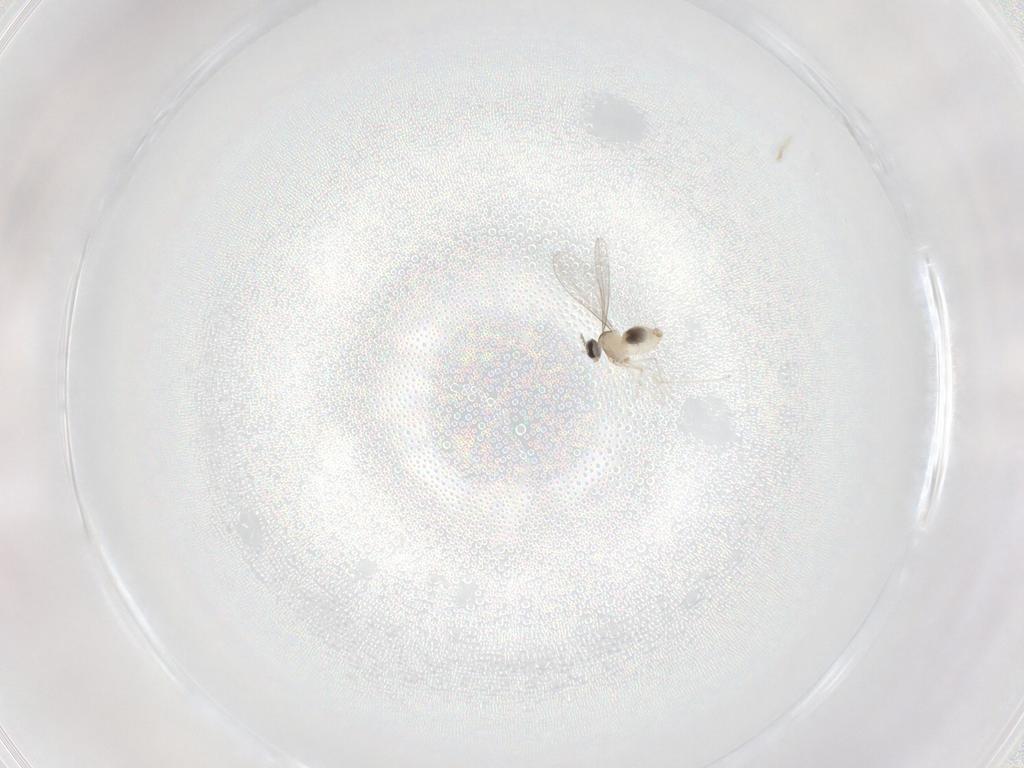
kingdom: Animalia
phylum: Arthropoda
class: Insecta
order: Diptera
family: Cecidomyiidae
